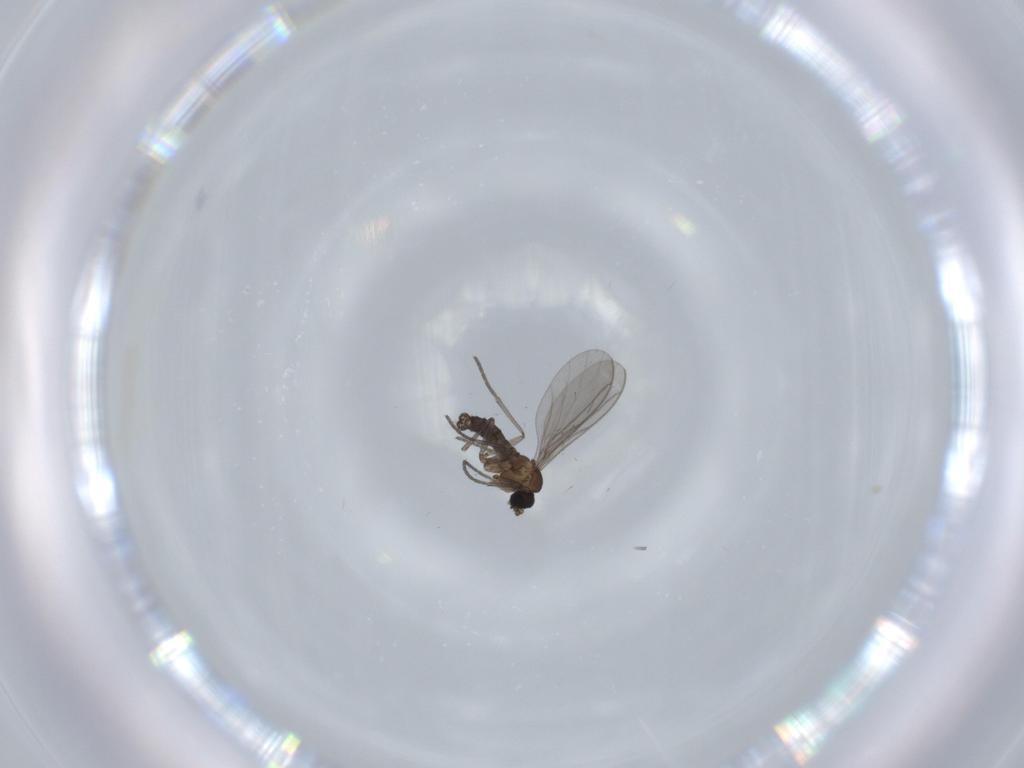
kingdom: Animalia
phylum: Arthropoda
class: Insecta
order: Diptera
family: Cecidomyiidae
